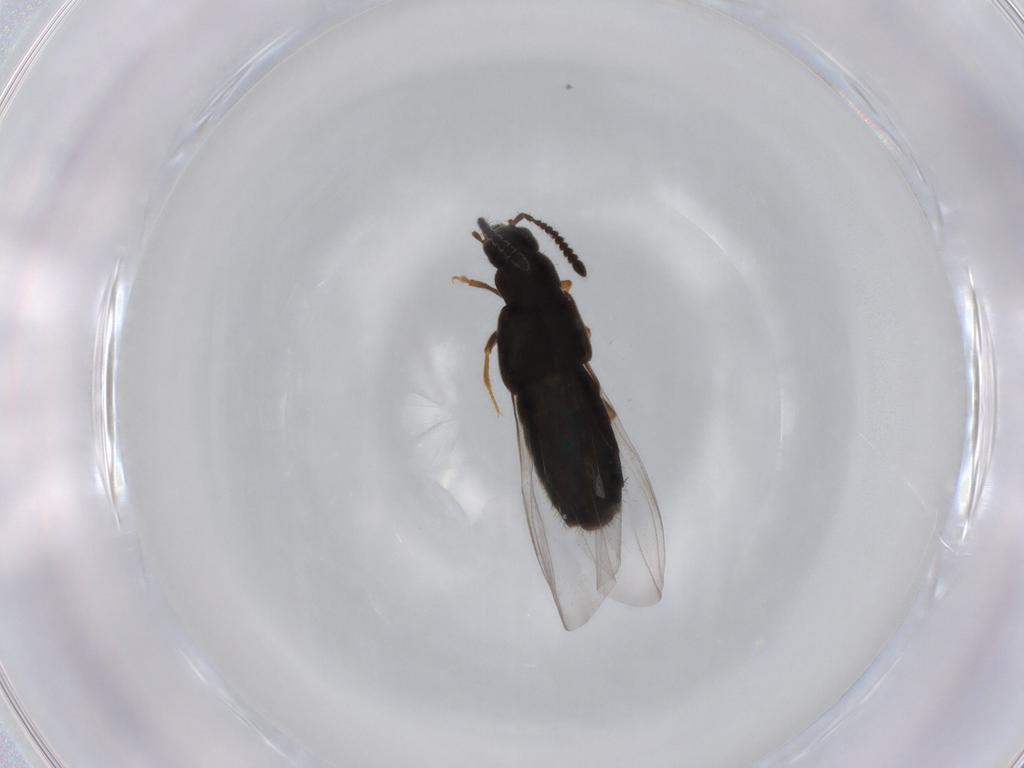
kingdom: Animalia
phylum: Arthropoda
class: Insecta
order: Coleoptera
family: Staphylinidae
